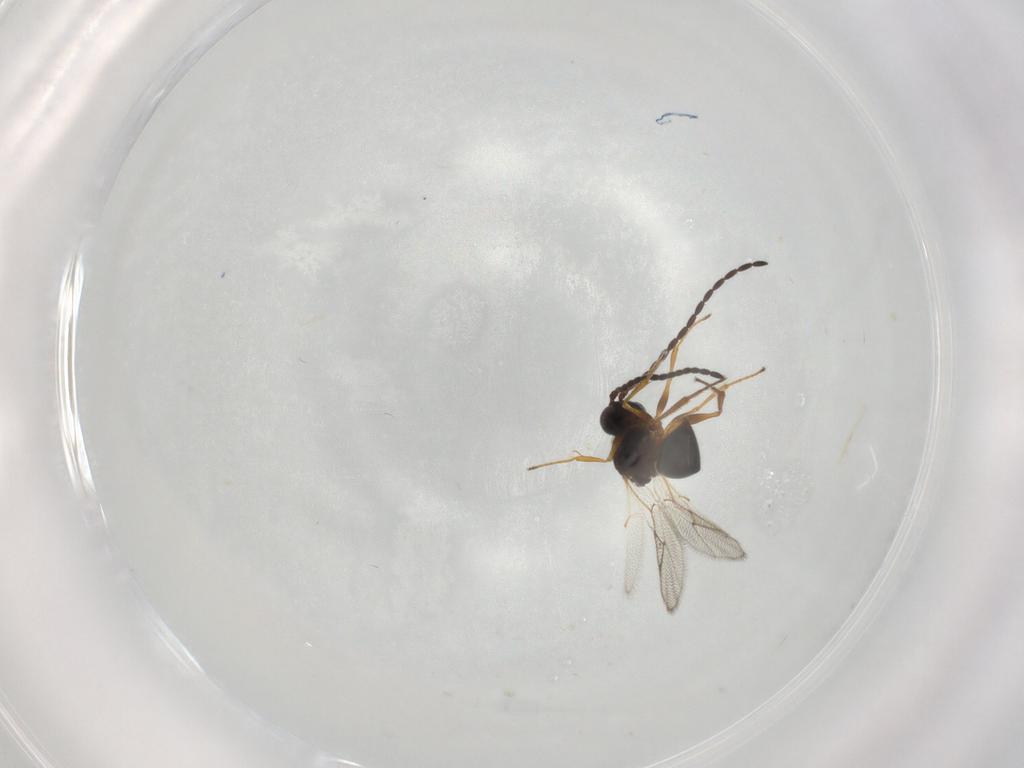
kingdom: Animalia
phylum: Arthropoda
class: Insecta
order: Hymenoptera
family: Figitidae
